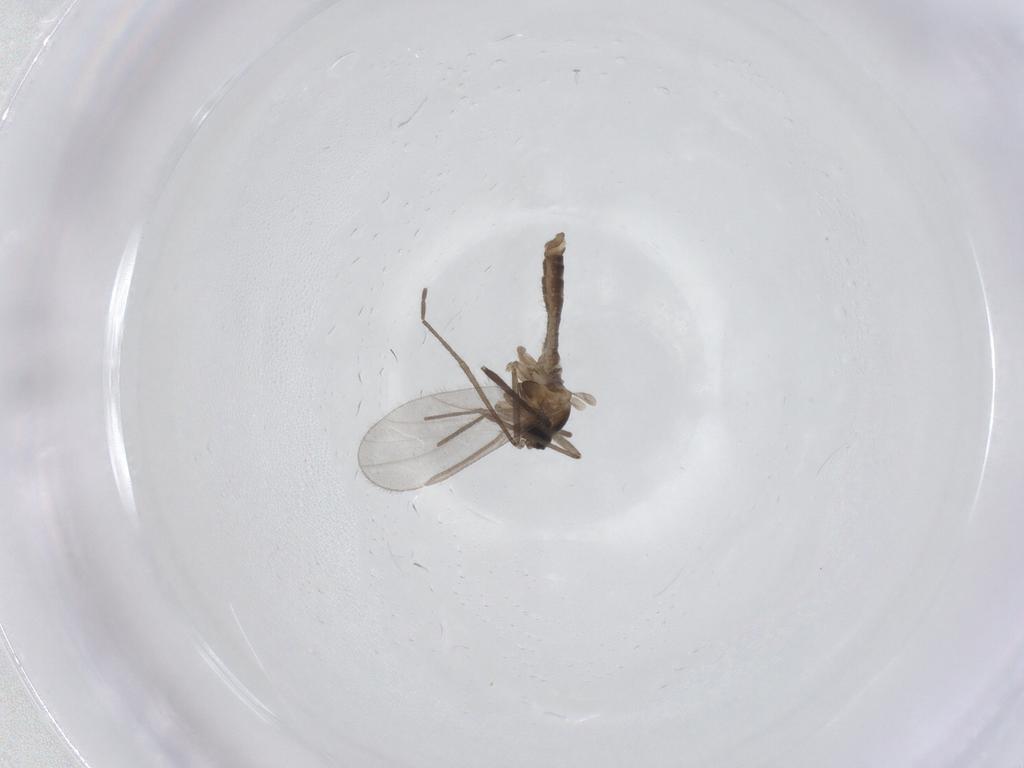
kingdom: Animalia
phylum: Arthropoda
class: Insecta
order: Diptera
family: Cecidomyiidae
